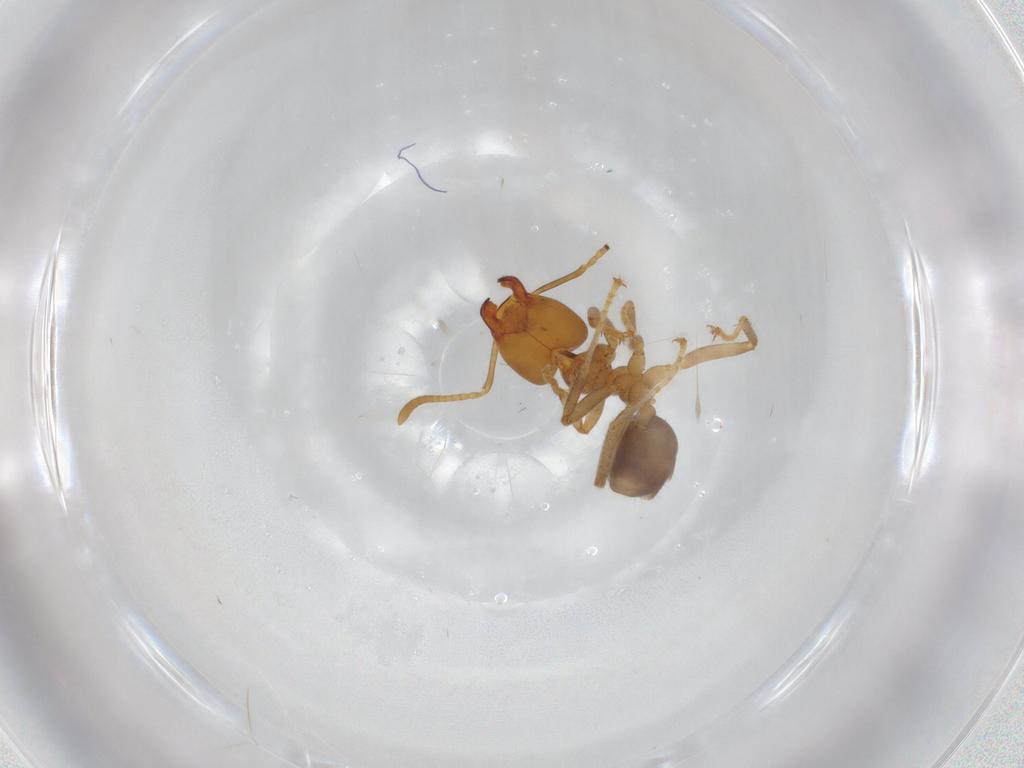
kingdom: Animalia
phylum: Arthropoda
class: Insecta
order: Hymenoptera
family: Formicidae
